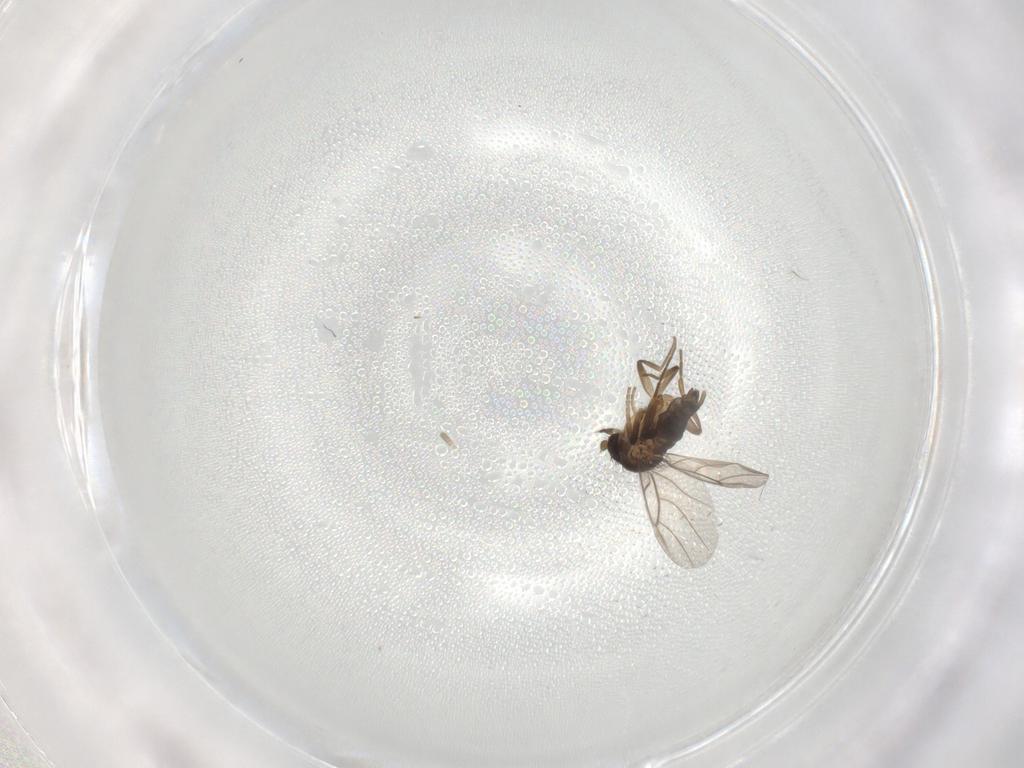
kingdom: Animalia
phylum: Arthropoda
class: Insecta
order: Diptera
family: Phoridae
